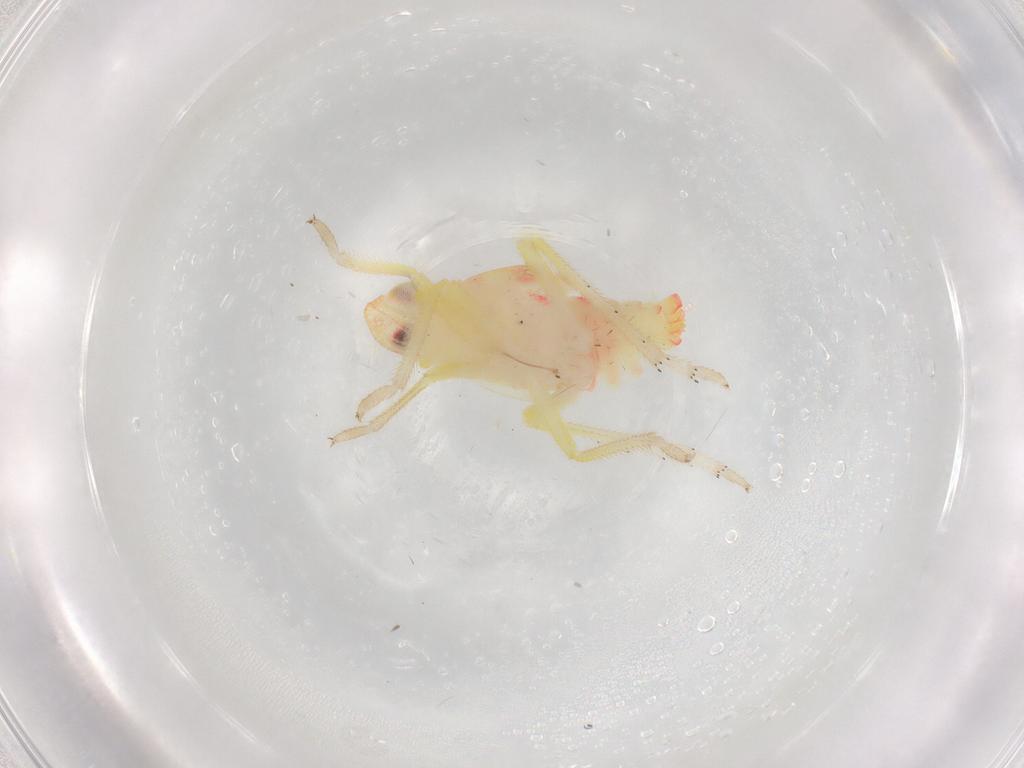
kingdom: Animalia
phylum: Arthropoda
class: Insecta
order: Hemiptera
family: Tropiduchidae
